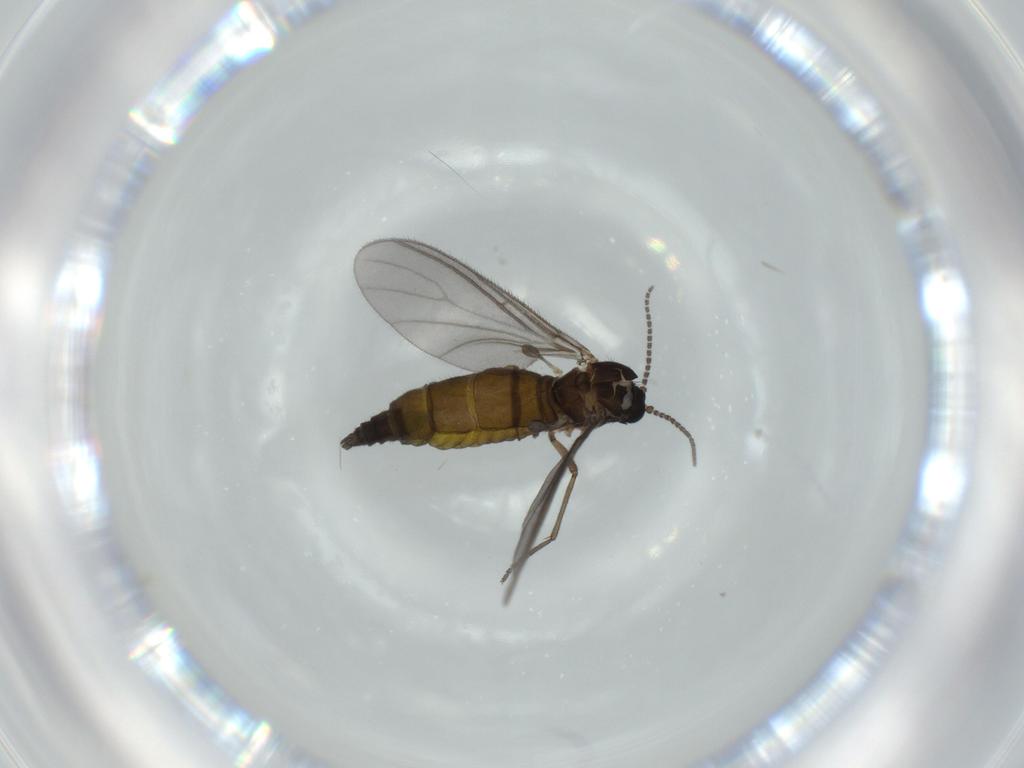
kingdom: Animalia
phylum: Arthropoda
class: Insecta
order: Diptera
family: Sciaridae
